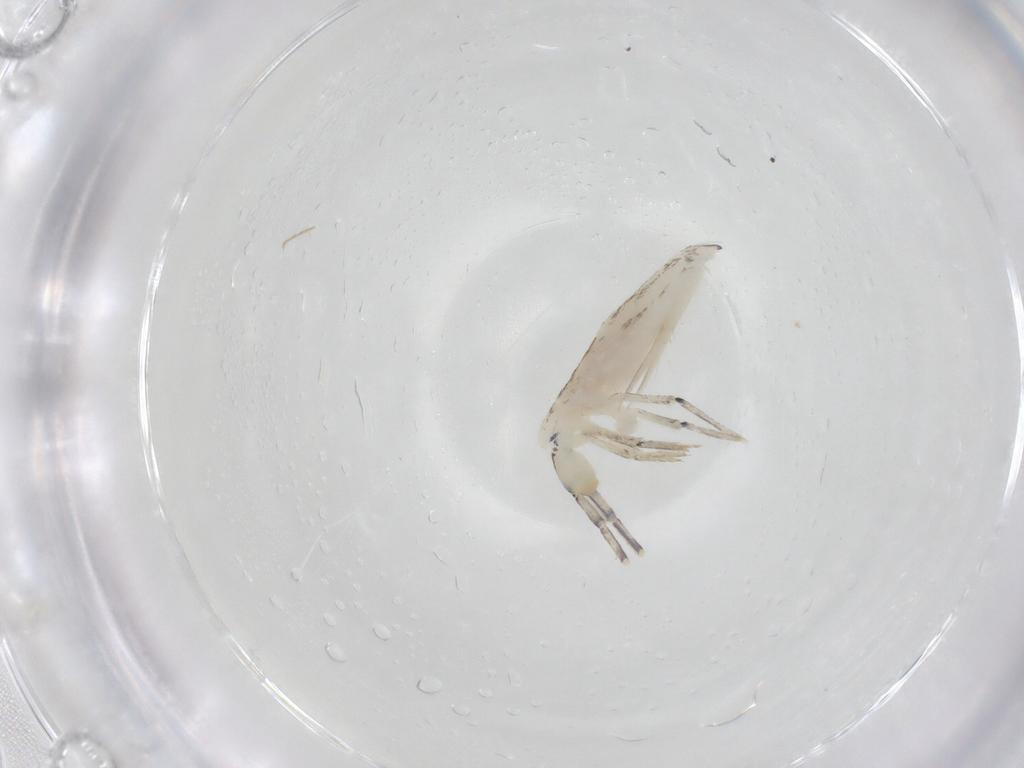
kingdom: Animalia
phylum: Arthropoda
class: Collembola
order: Entomobryomorpha
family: Entomobryidae
